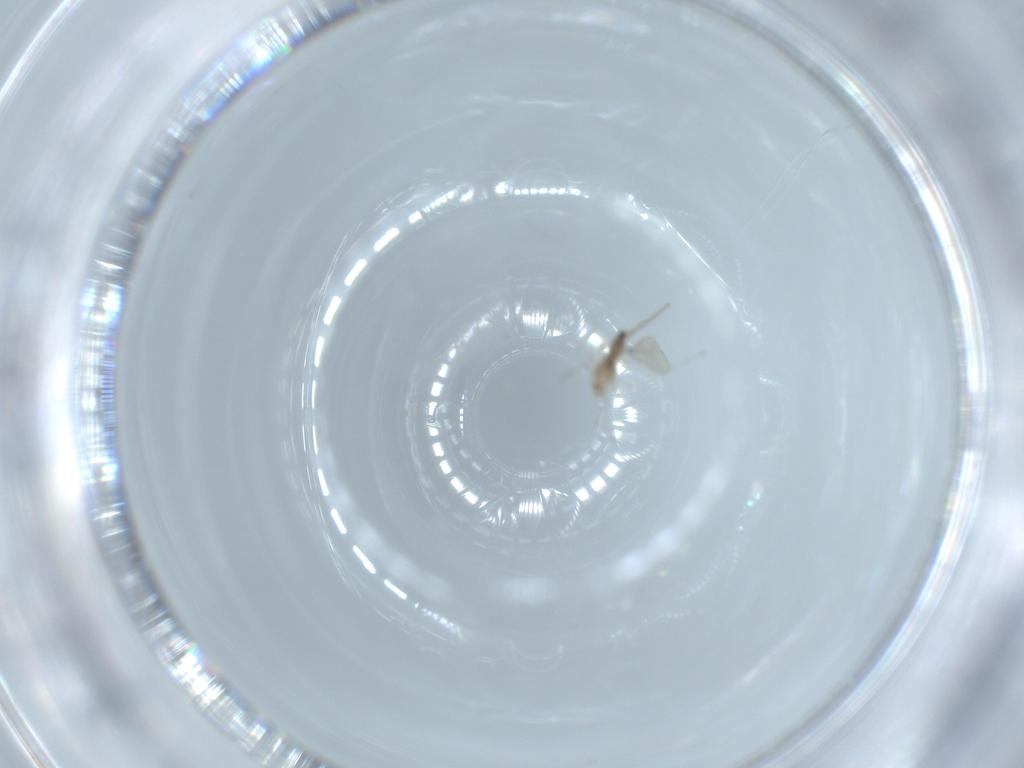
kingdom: Animalia
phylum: Arthropoda
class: Insecta
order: Diptera
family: Cecidomyiidae
